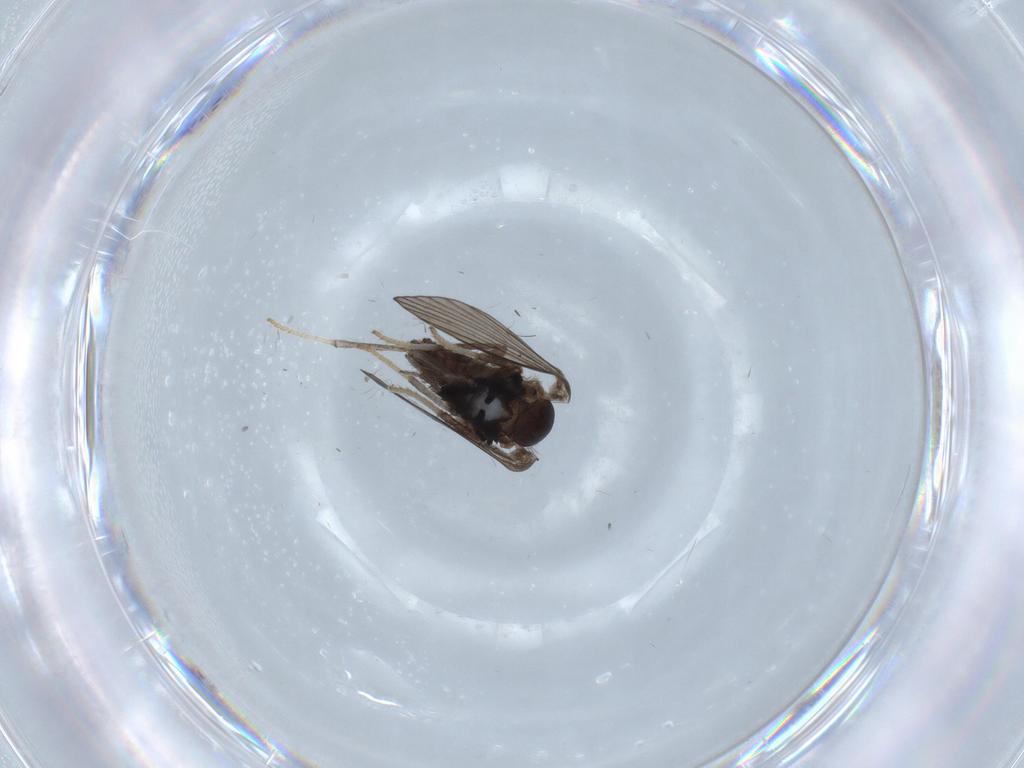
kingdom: Animalia
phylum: Arthropoda
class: Insecta
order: Diptera
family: Psychodidae
